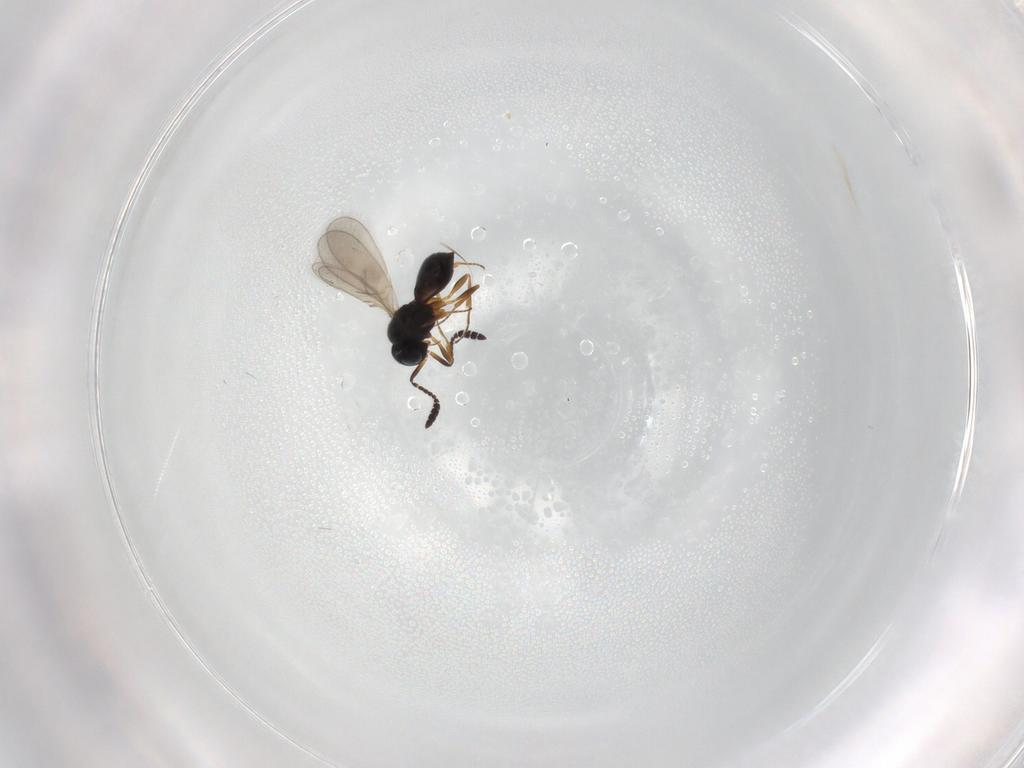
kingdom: Animalia
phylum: Arthropoda
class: Insecta
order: Hymenoptera
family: Scelionidae
